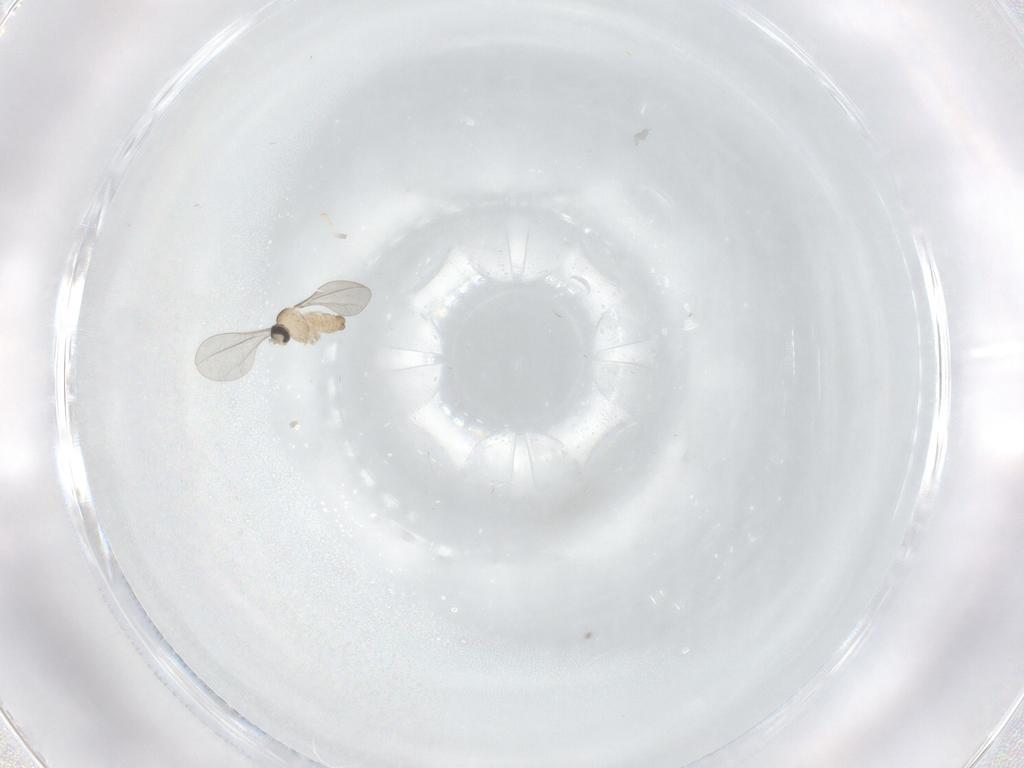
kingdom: Animalia
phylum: Arthropoda
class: Insecta
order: Diptera
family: Cecidomyiidae
